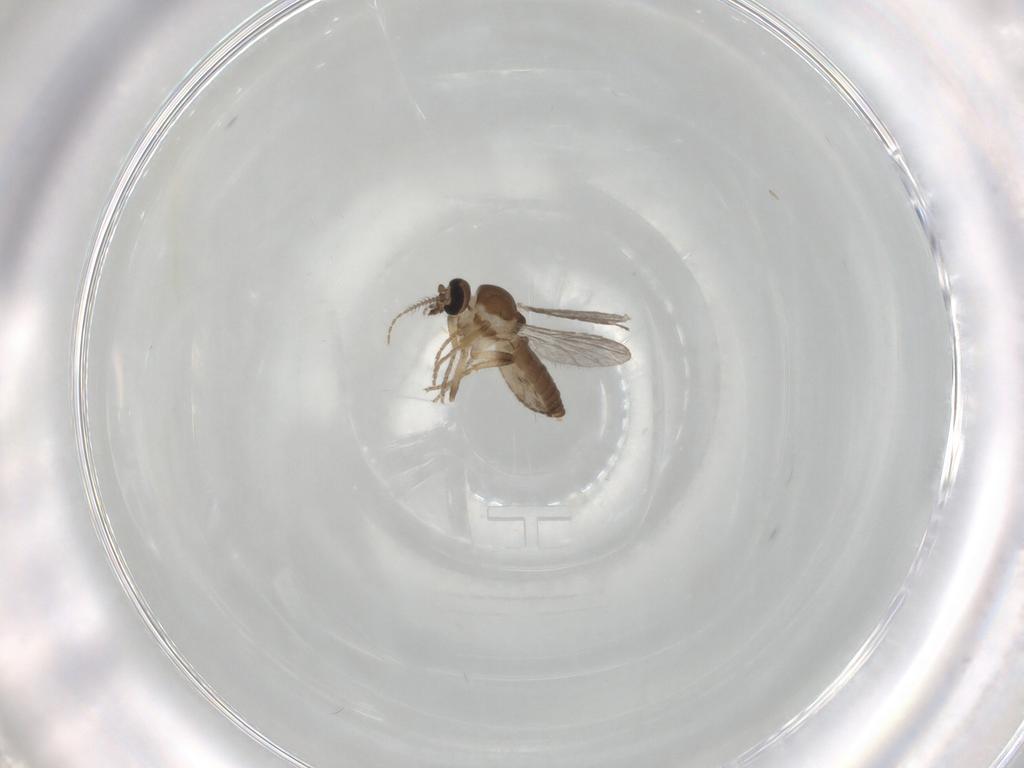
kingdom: Animalia
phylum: Arthropoda
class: Insecta
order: Diptera
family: Ceratopogonidae
